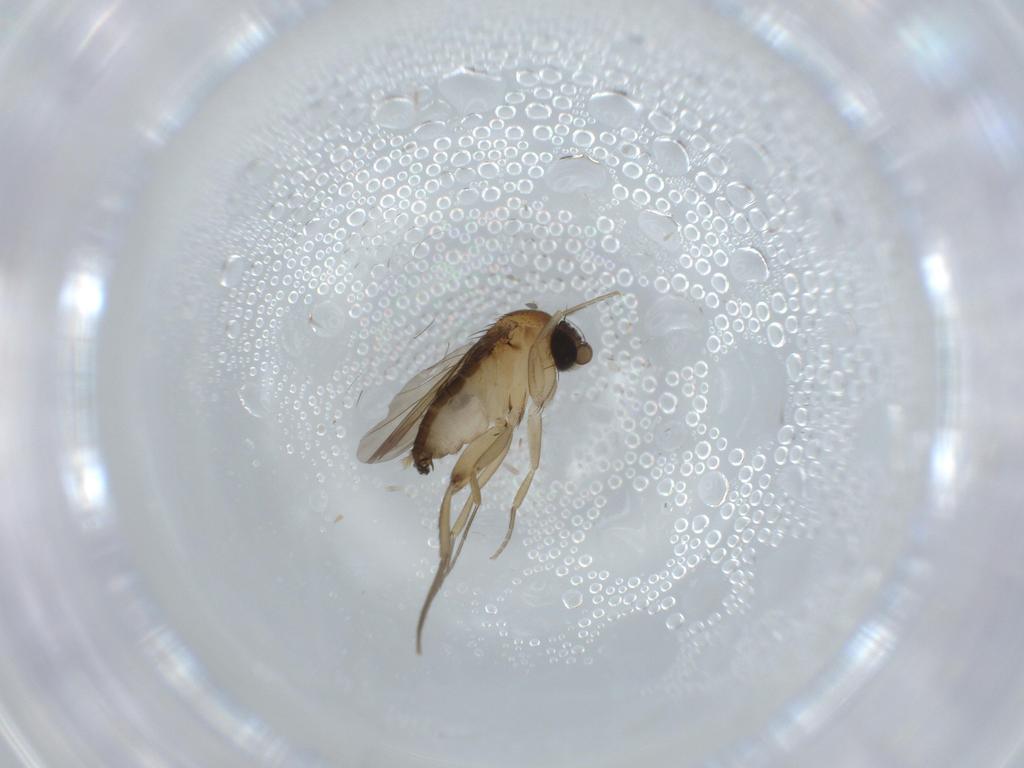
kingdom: Animalia
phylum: Arthropoda
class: Insecta
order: Diptera
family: Phoridae
